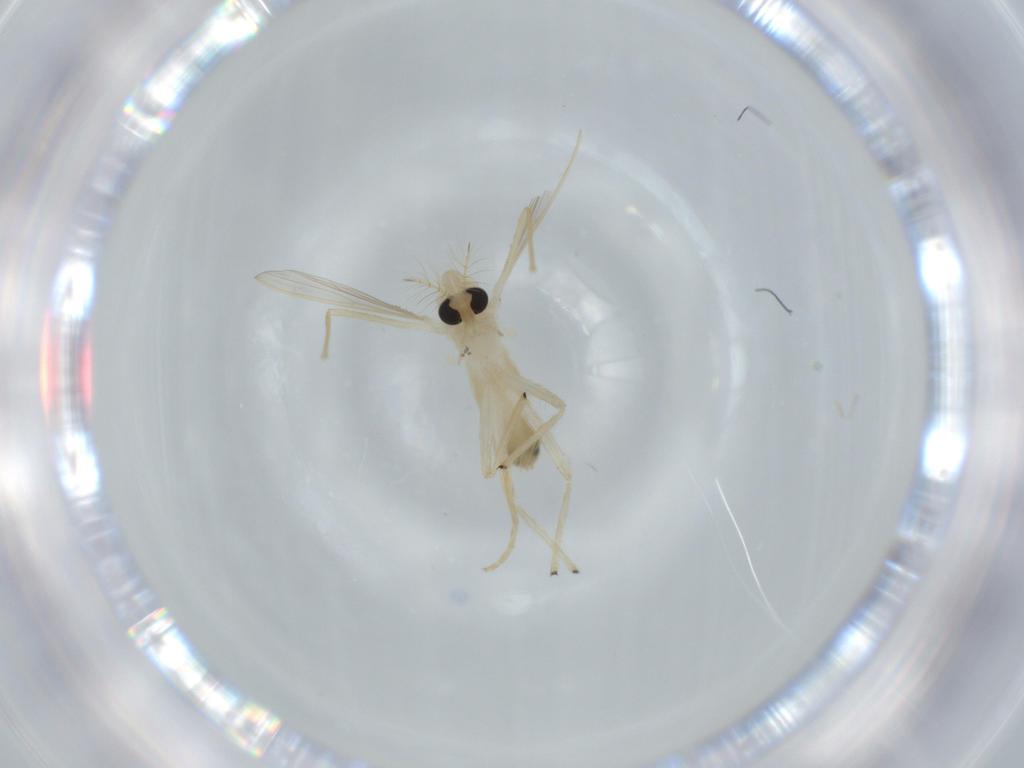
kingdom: Animalia
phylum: Arthropoda
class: Insecta
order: Diptera
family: Chironomidae
